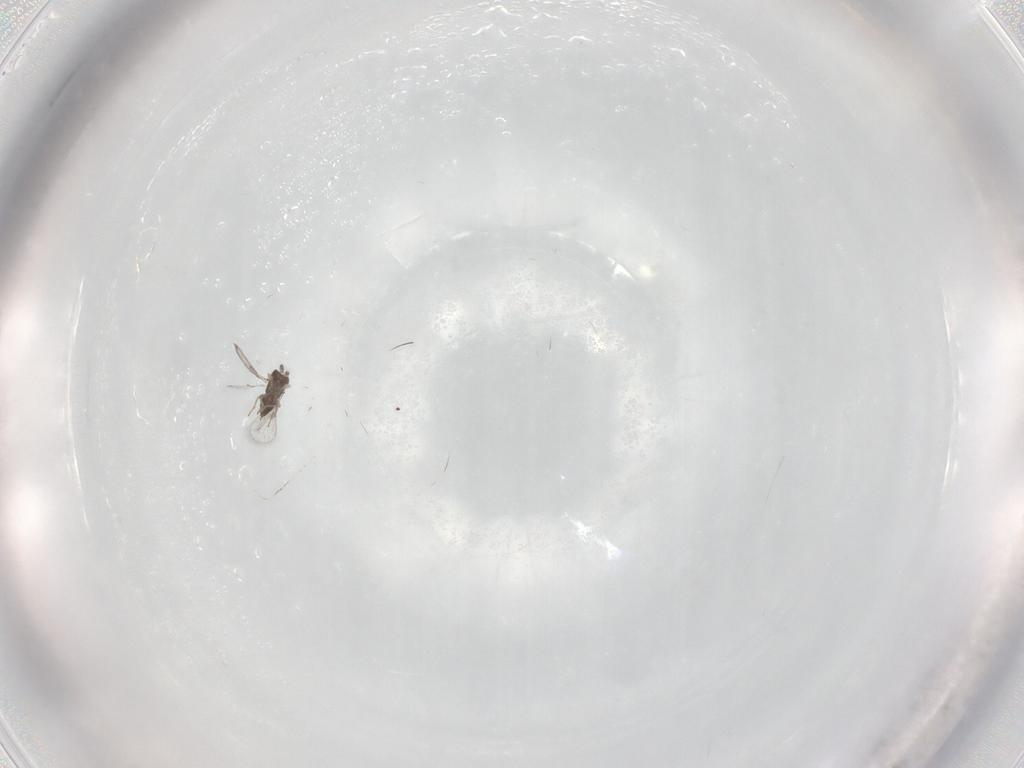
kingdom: Animalia
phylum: Arthropoda
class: Insecta
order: Hymenoptera
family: Trichogrammatidae
